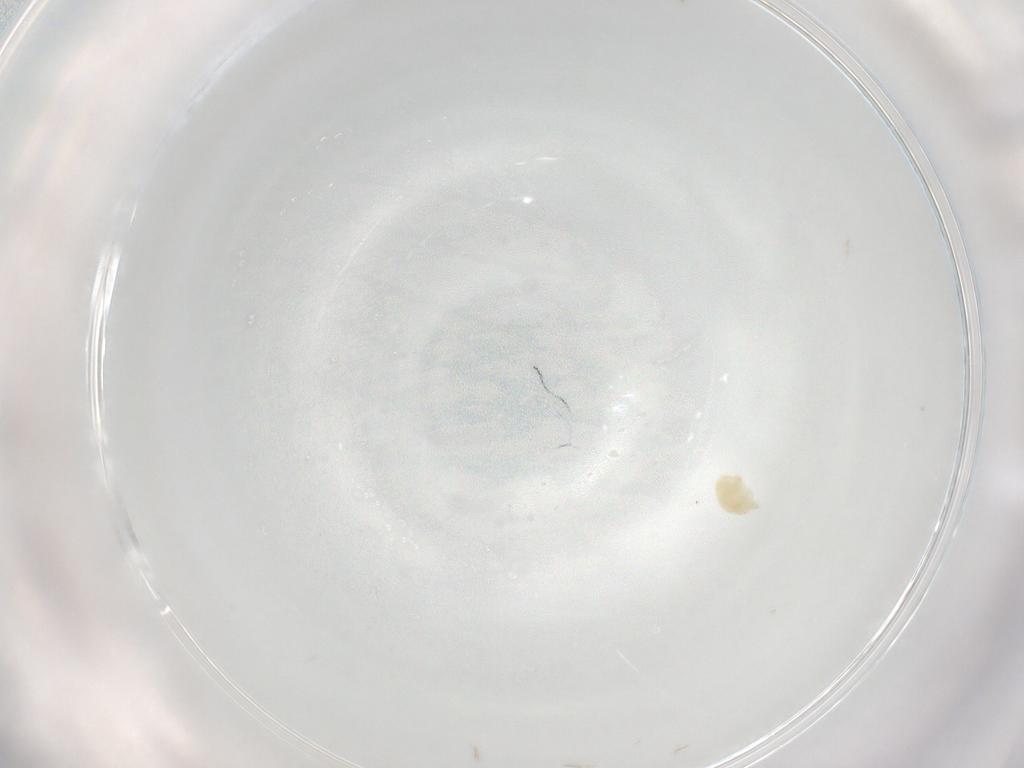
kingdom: Animalia
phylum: Arthropoda
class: Arachnida
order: Trombidiformes
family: Eupodidae
